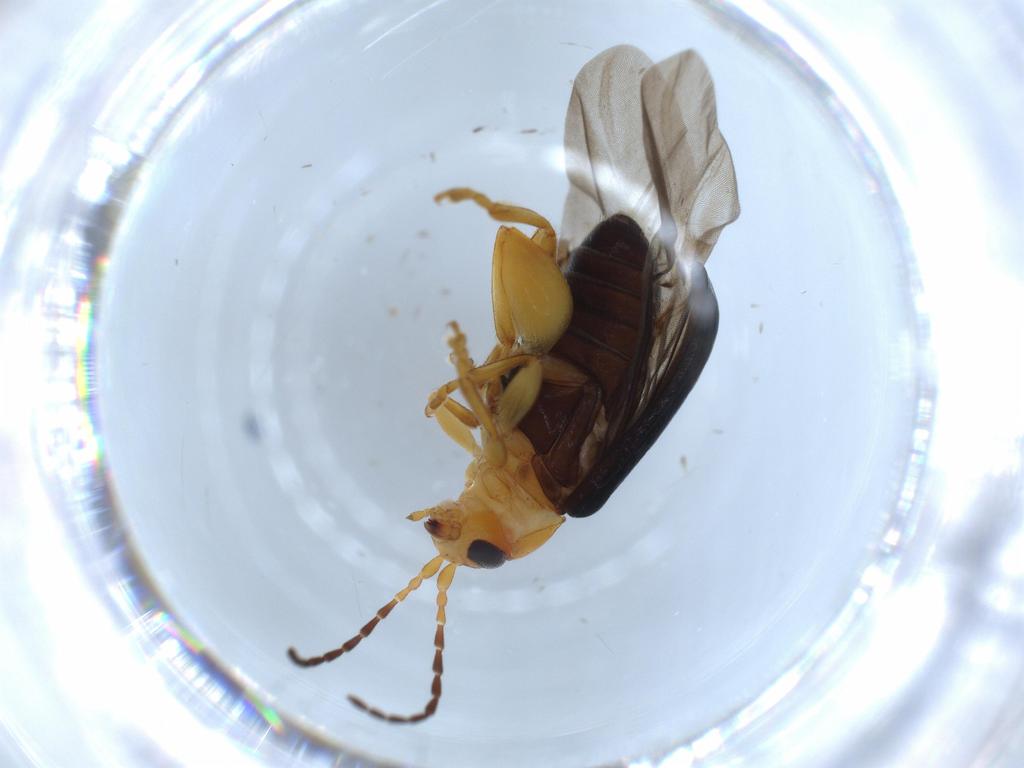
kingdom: Animalia
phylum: Arthropoda
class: Insecta
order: Coleoptera
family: Chrysomelidae
